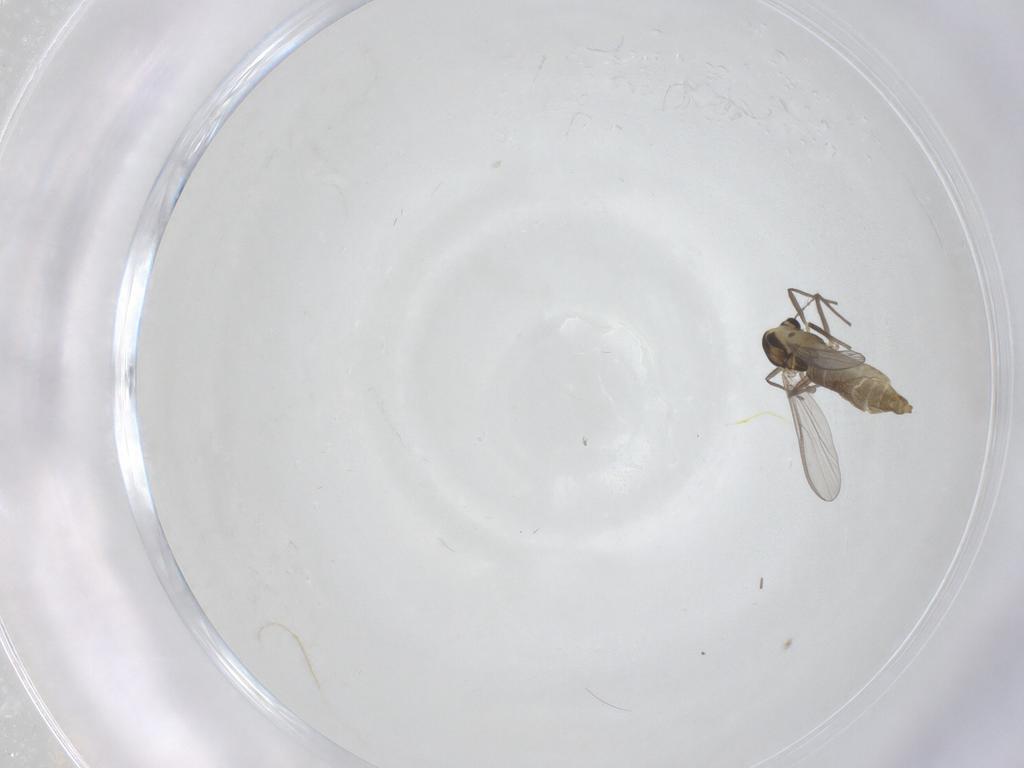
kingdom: Animalia
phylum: Arthropoda
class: Insecta
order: Diptera
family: Chironomidae
